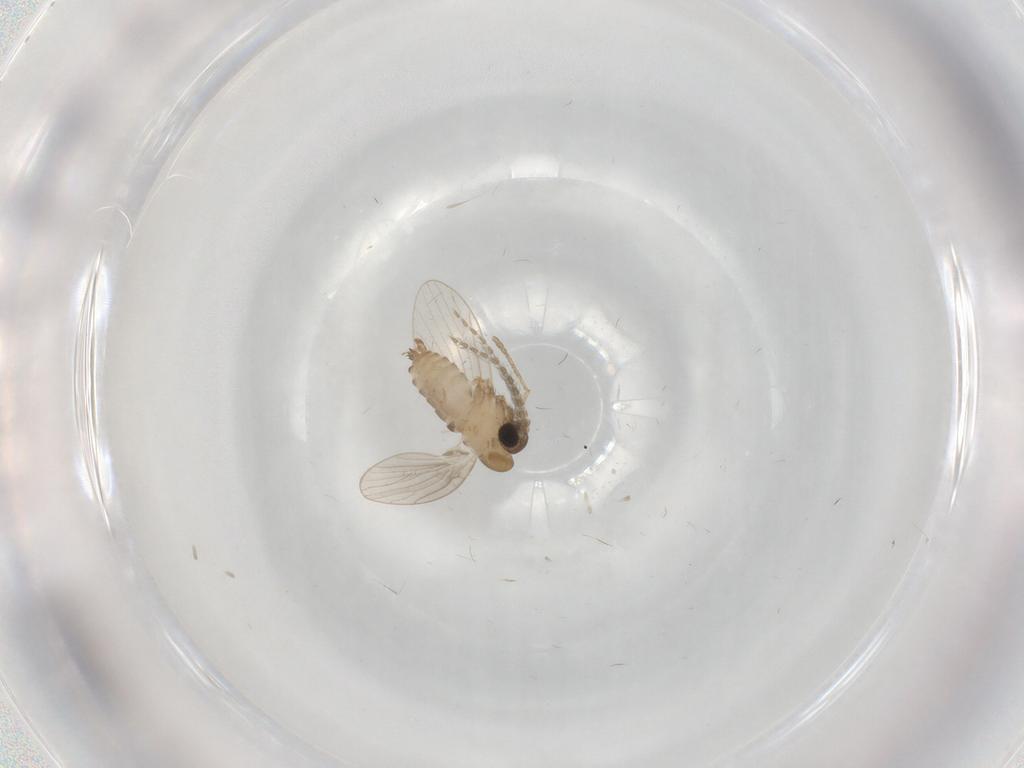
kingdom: Animalia
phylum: Arthropoda
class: Insecta
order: Diptera
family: Psychodidae
